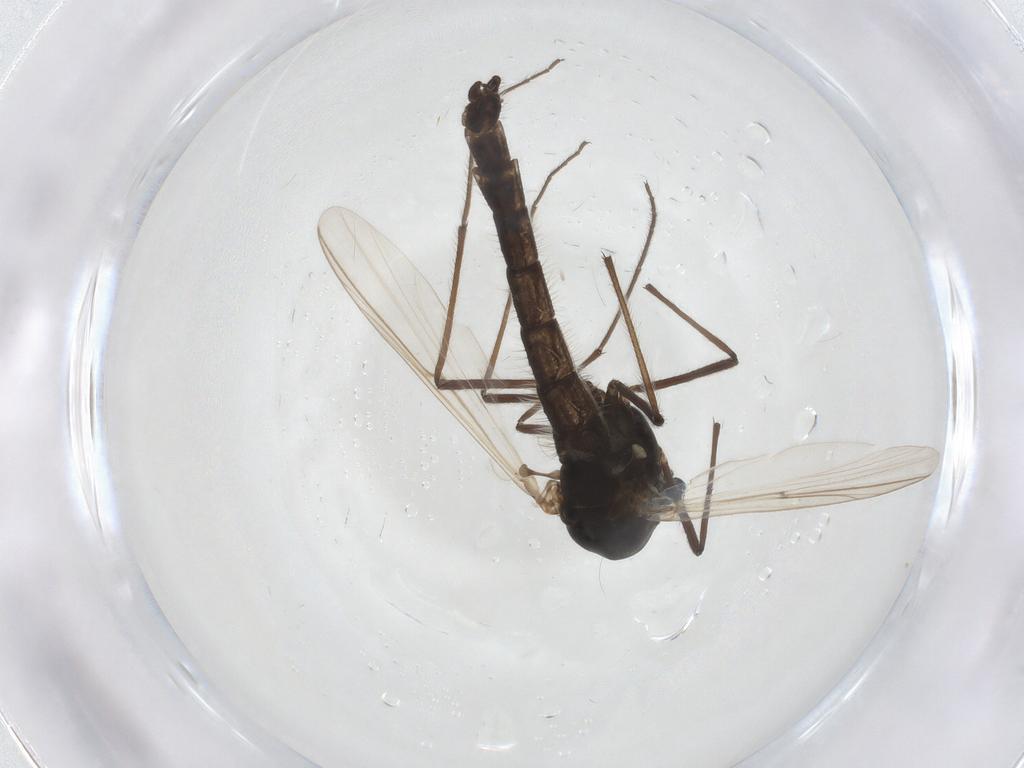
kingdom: Animalia
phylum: Arthropoda
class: Insecta
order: Diptera
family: Chironomidae
